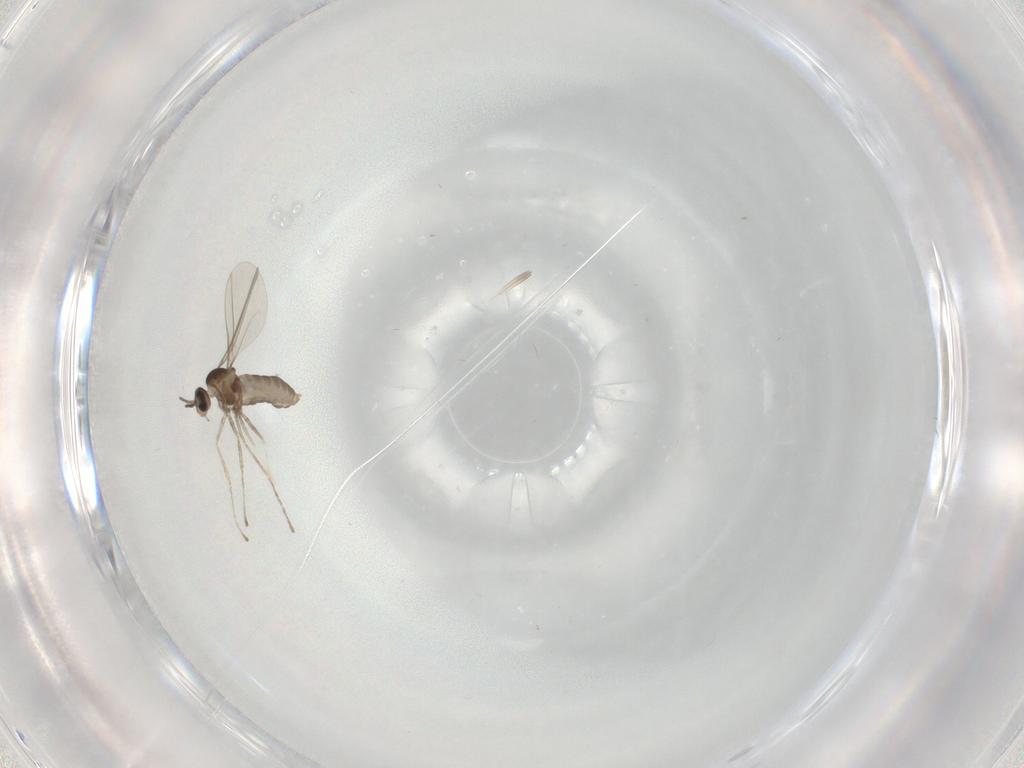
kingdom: Animalia
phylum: Arthropoda
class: Insecta
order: Diptera
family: Cecidomyiidae
